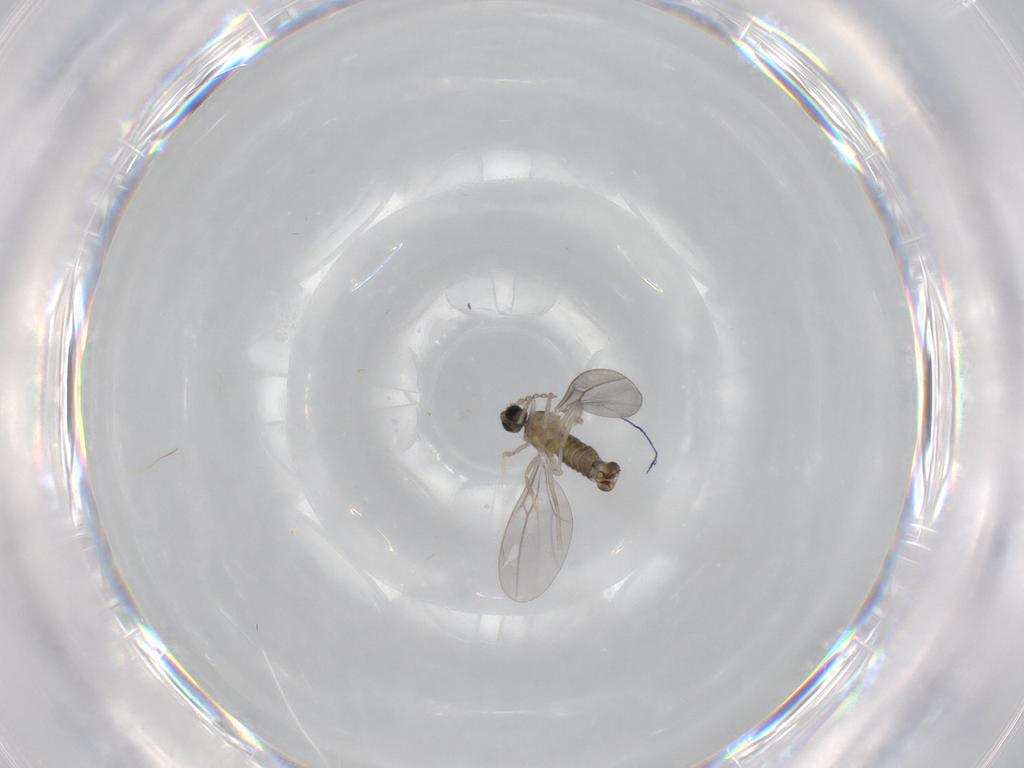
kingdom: Animalia
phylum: Arthropoda
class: Insecta
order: Diptera
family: Cecidomyiidae
